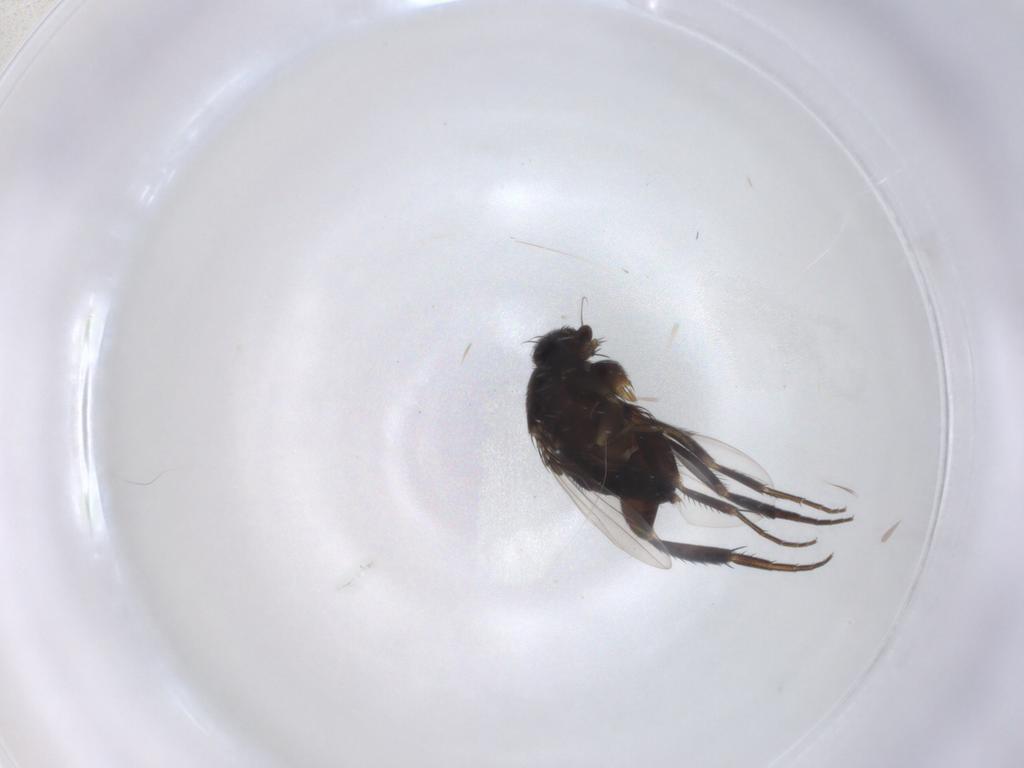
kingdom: Animalia
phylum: Arthropoda
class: Insecta
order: Diptera
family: Phoridae
